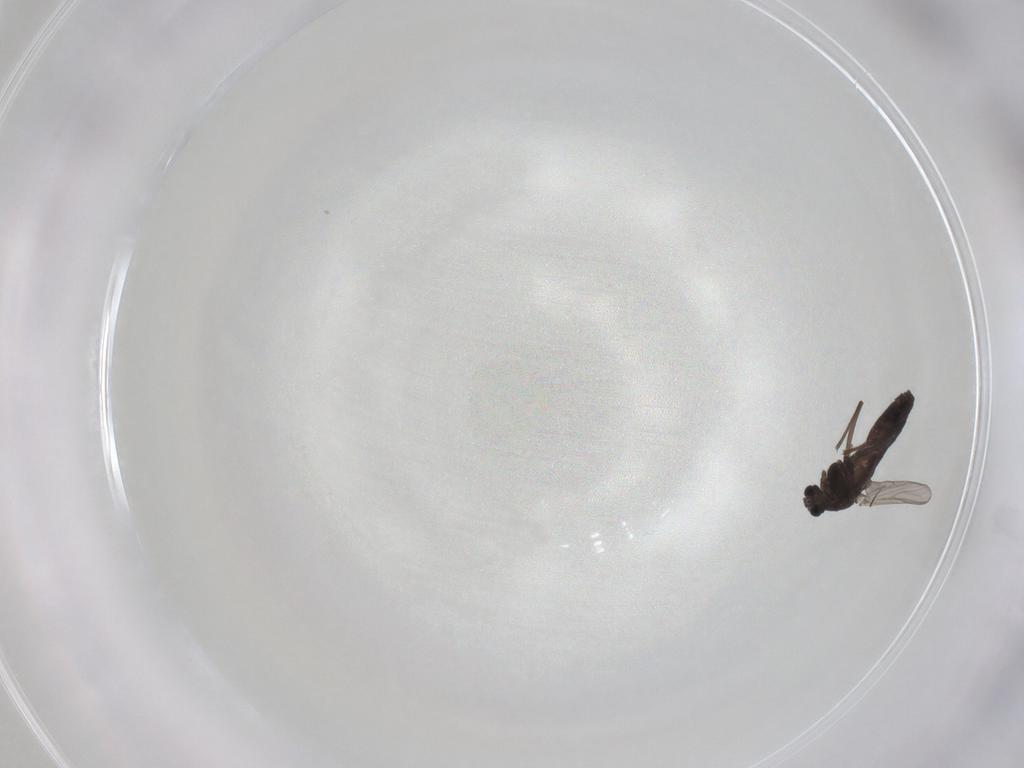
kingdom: Animalia
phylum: Arthropoda
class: Insecta
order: Diptera
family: Chironomidae
